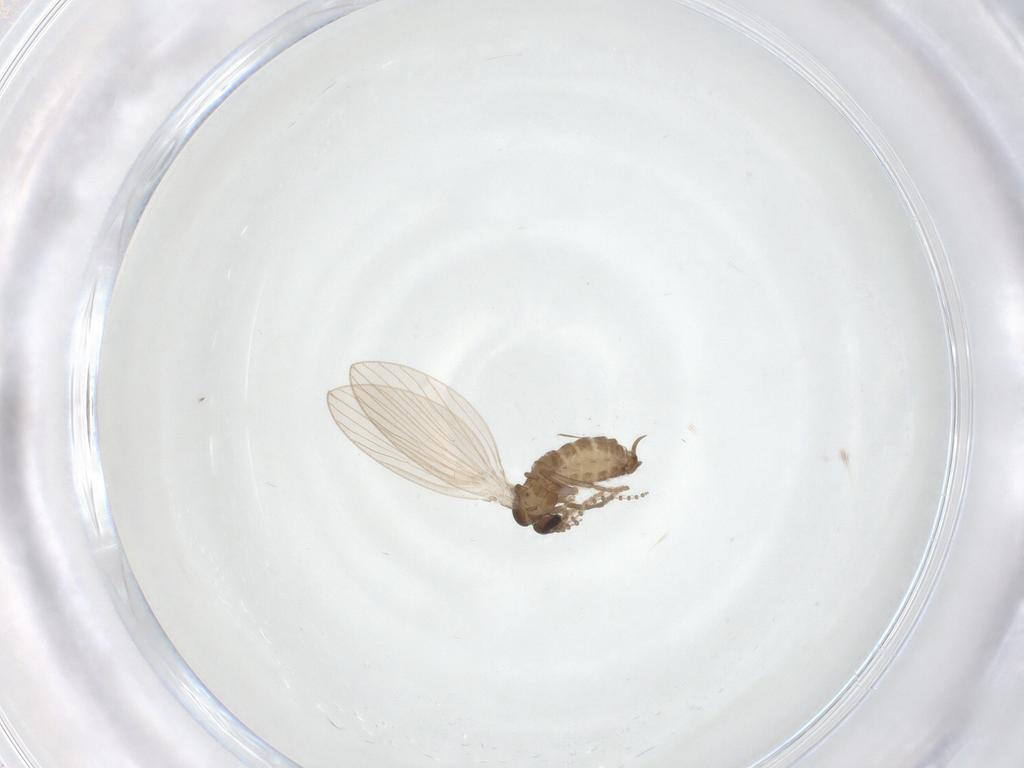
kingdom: Animalia
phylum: Arthropoda
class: Insecta
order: Diptera
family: Psychodidae
